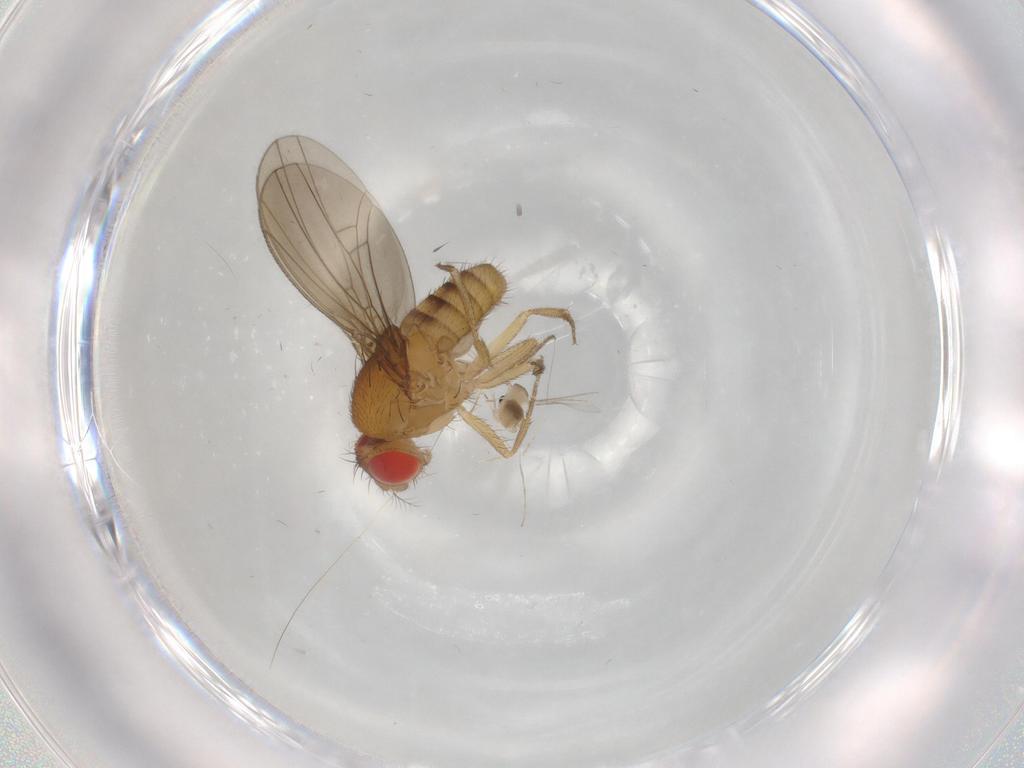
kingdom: Animalia
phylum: Arthropoda
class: Insecta
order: Diptera
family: Drosophilidae
